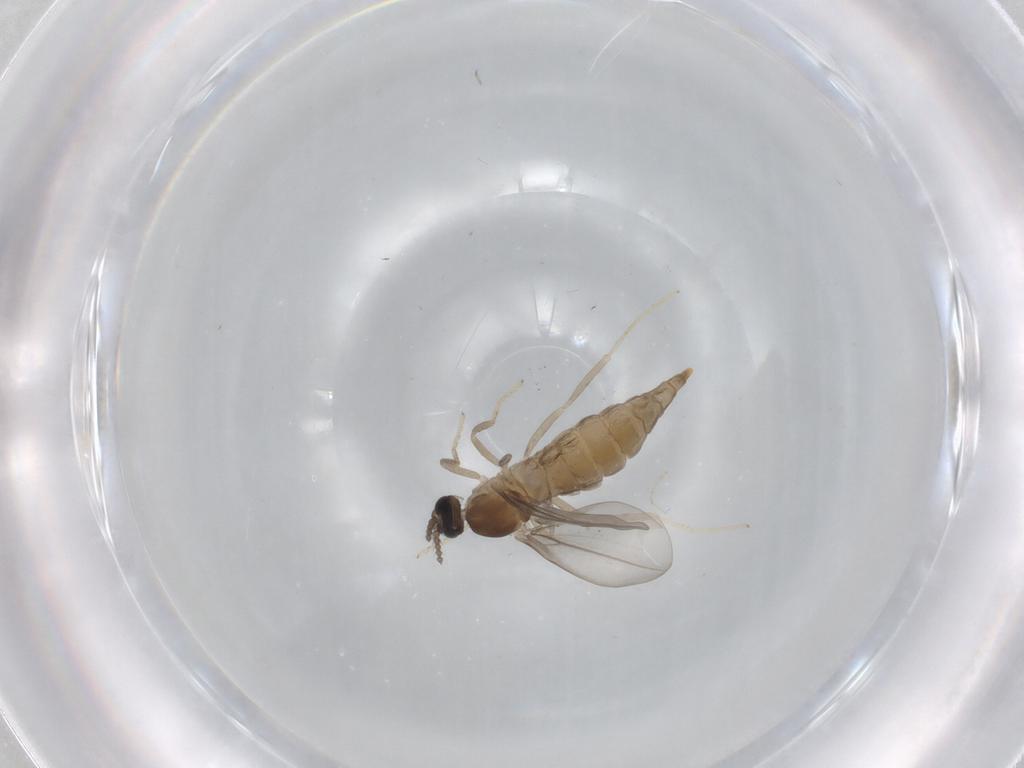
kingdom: Animalia
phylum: Arthropoda
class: Insecta
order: Diptera
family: Cecidomyiidae
